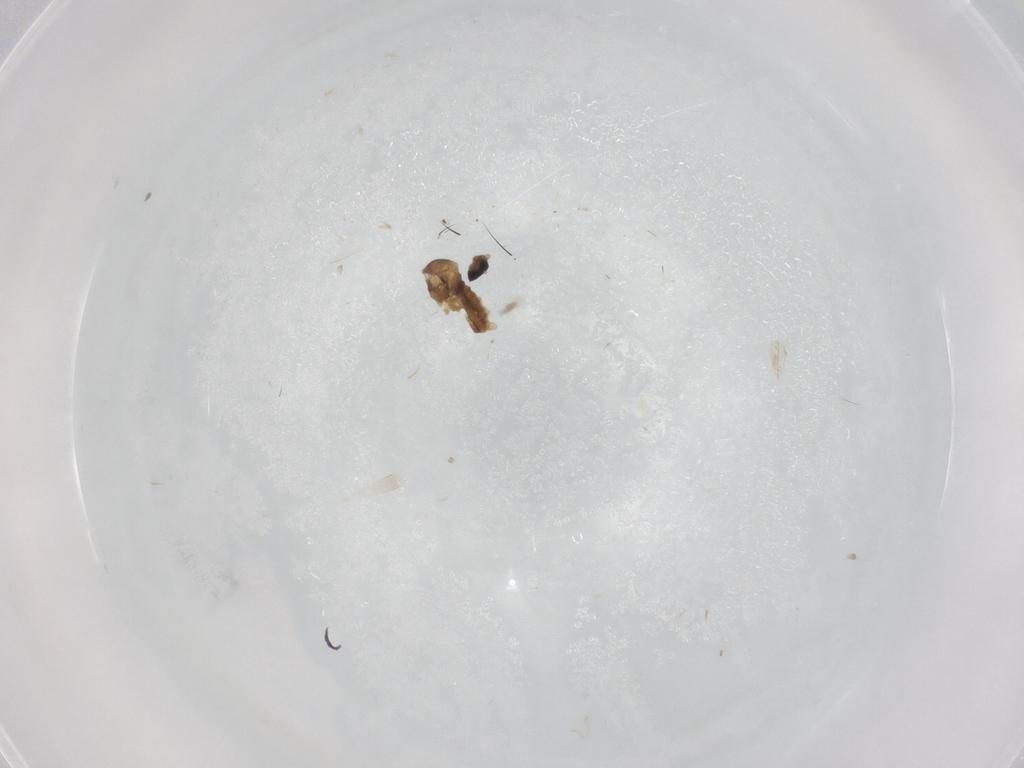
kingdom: Animalia
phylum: Arthropoda
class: Insecta
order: Diptera
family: Cecidomyiidae
